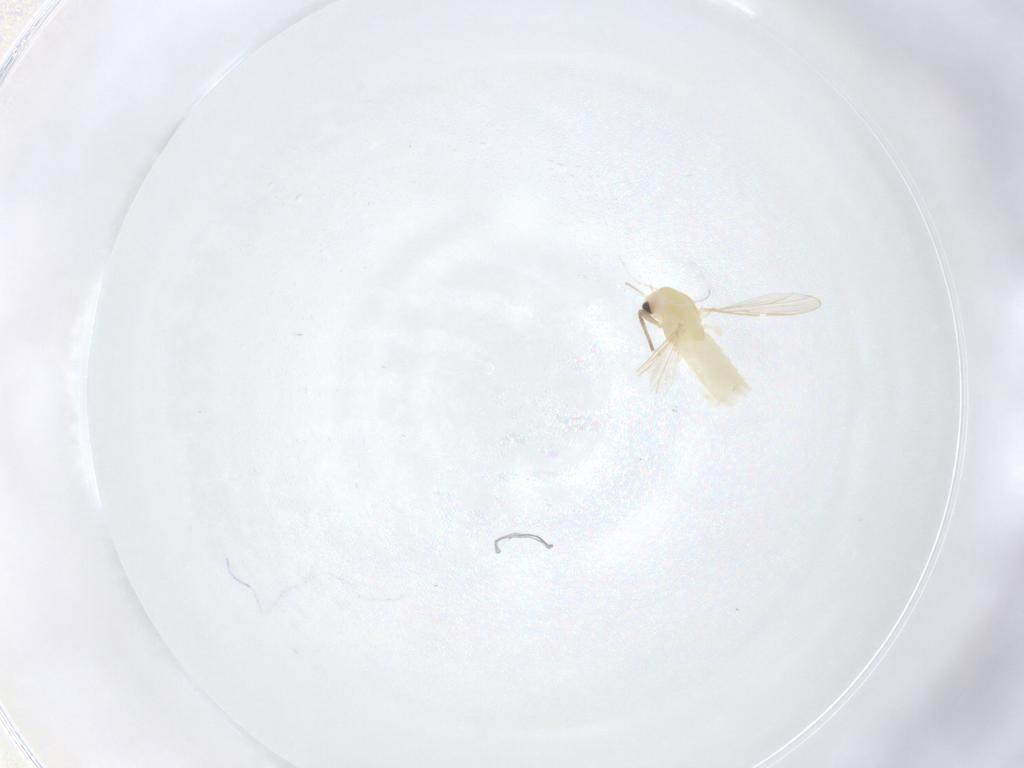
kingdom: Animalia
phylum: Arthropoda
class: Insecta
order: Diptera
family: Chironomidae
